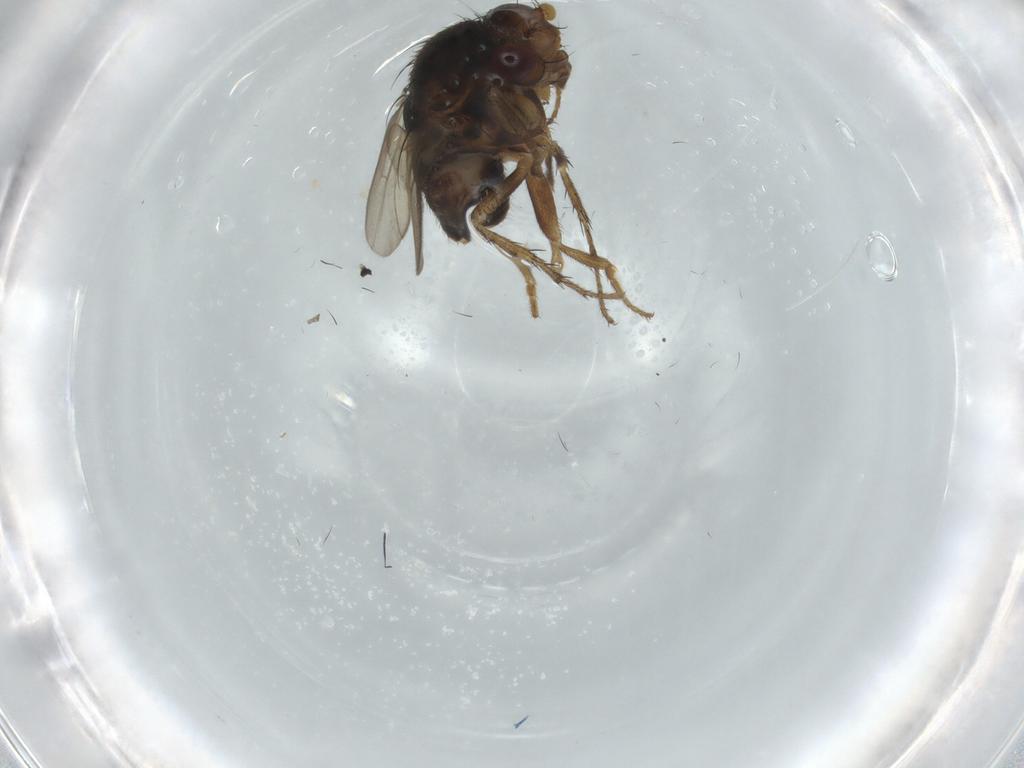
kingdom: Animalia
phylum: Arthropoda
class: Insecta
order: Diptera
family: Sphaeroceridae
